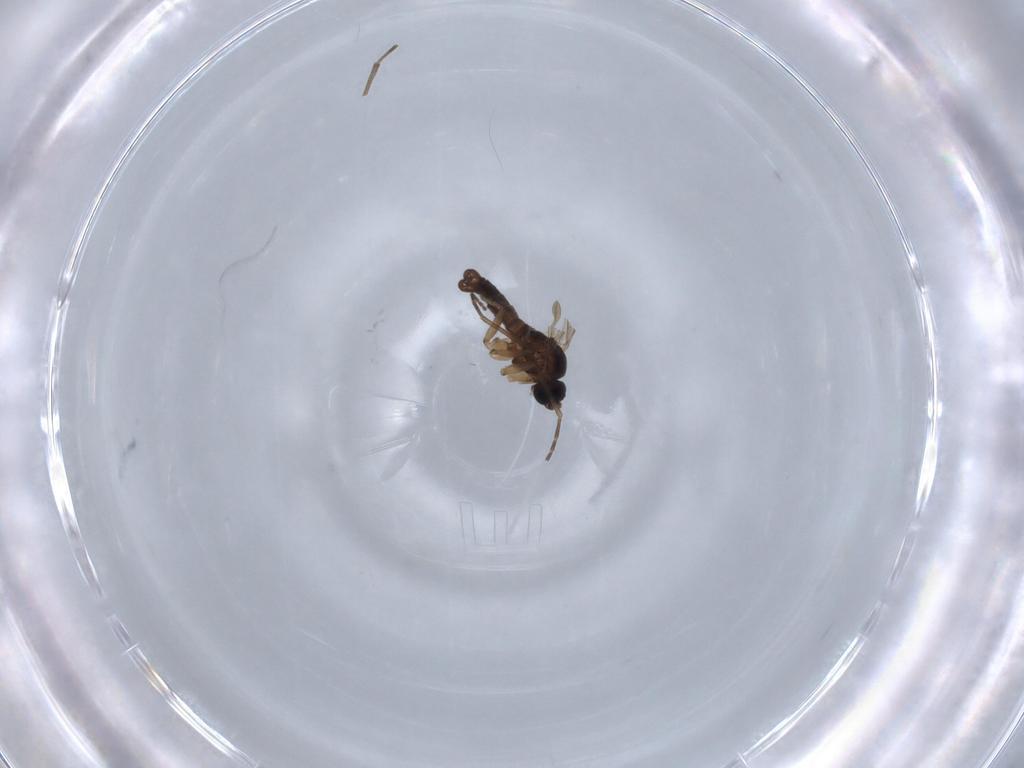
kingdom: Animalia
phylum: Arthropoda
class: Insecta
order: Diptera
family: Sciaridae
